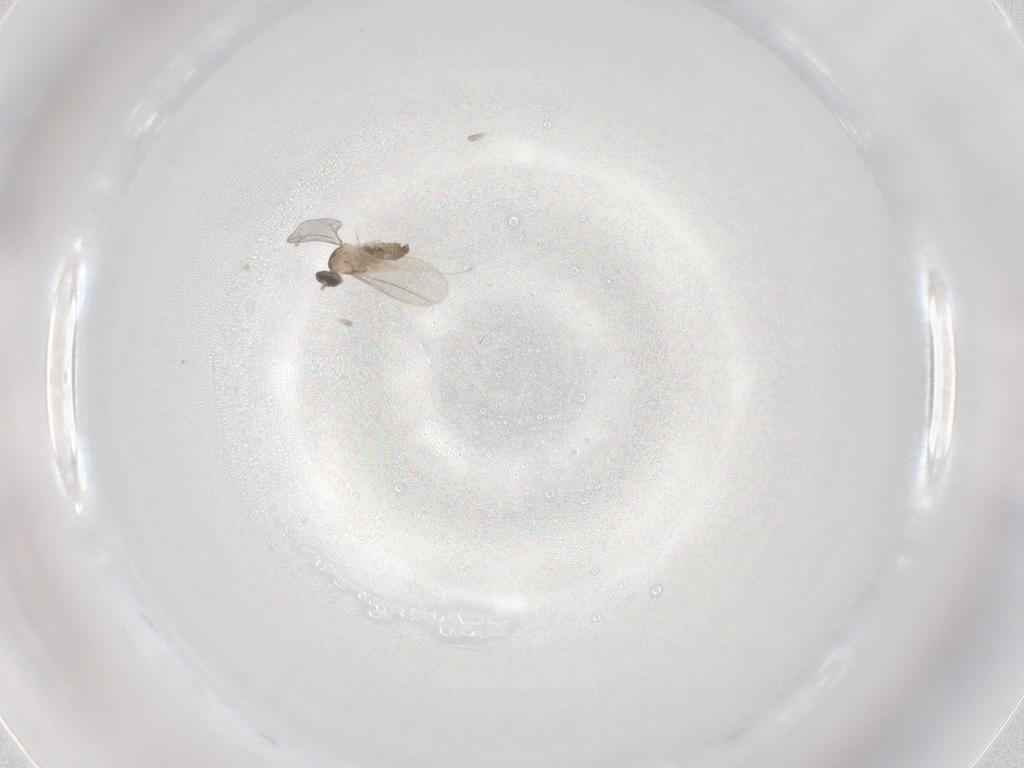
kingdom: Animalia
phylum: Arthropoda
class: Insecta
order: Diptera
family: Cecidomyiidae
